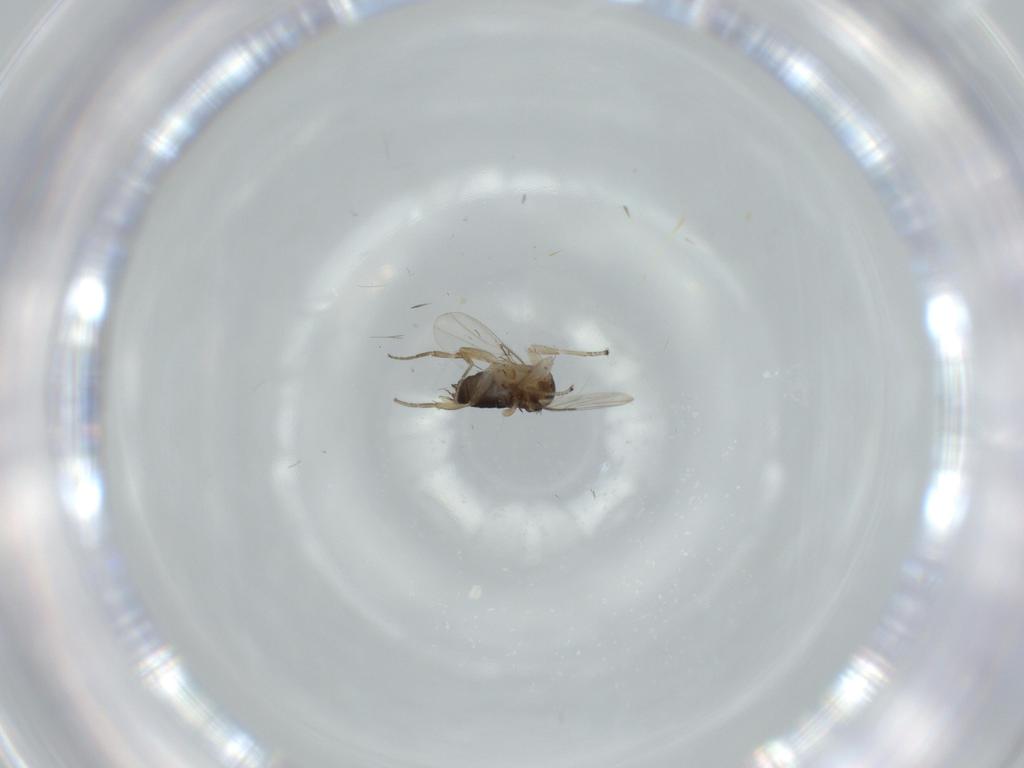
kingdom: Animalia
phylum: Arthropoda
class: Insecta
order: Diptera
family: Phoridae
